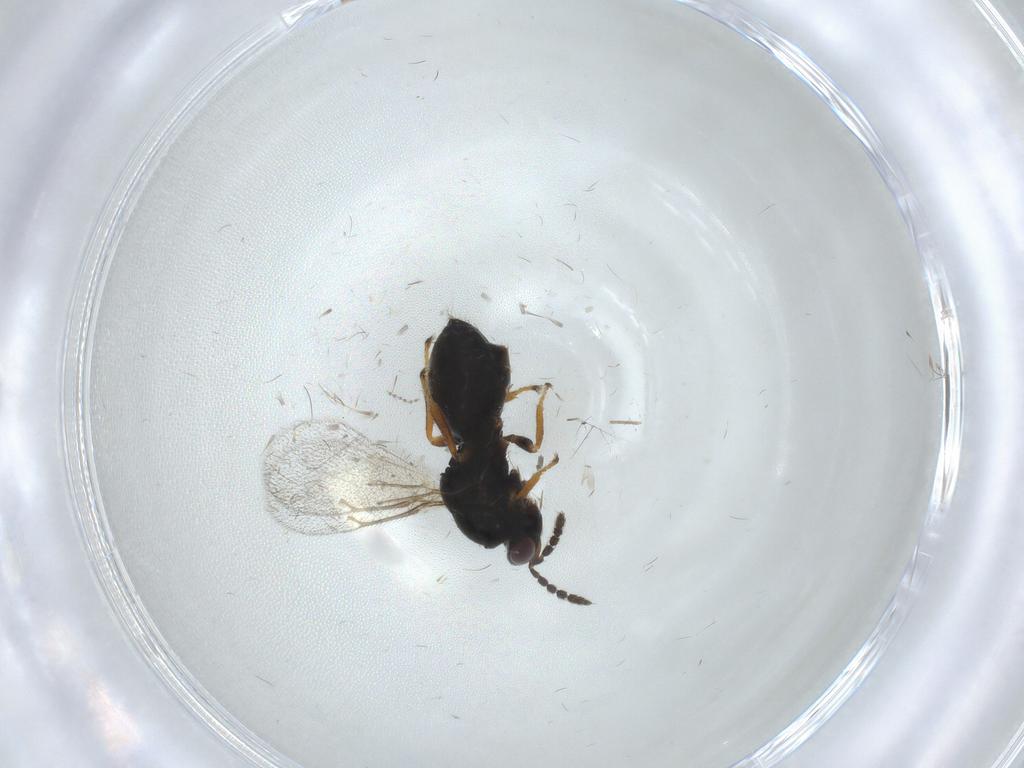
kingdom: Animalia
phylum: Arthropoda
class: Insecta
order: Hymenoptera
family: Eulophidae
